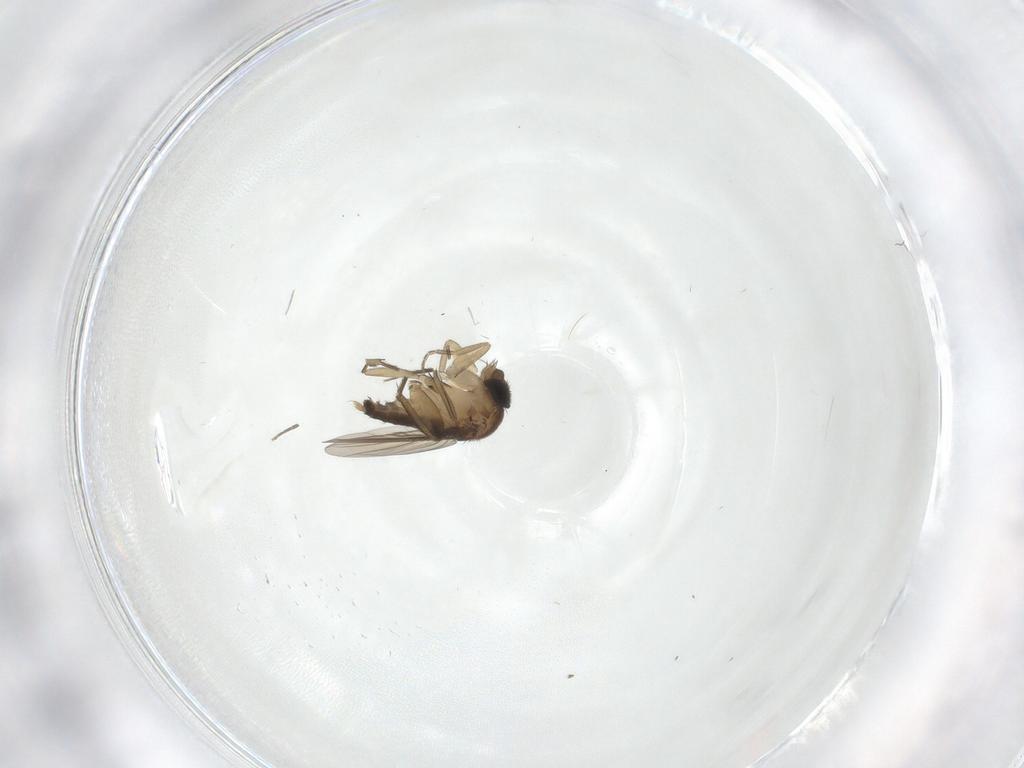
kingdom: Animalia
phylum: Arthropoda
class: Insecta
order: Diptera
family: Phoridae
